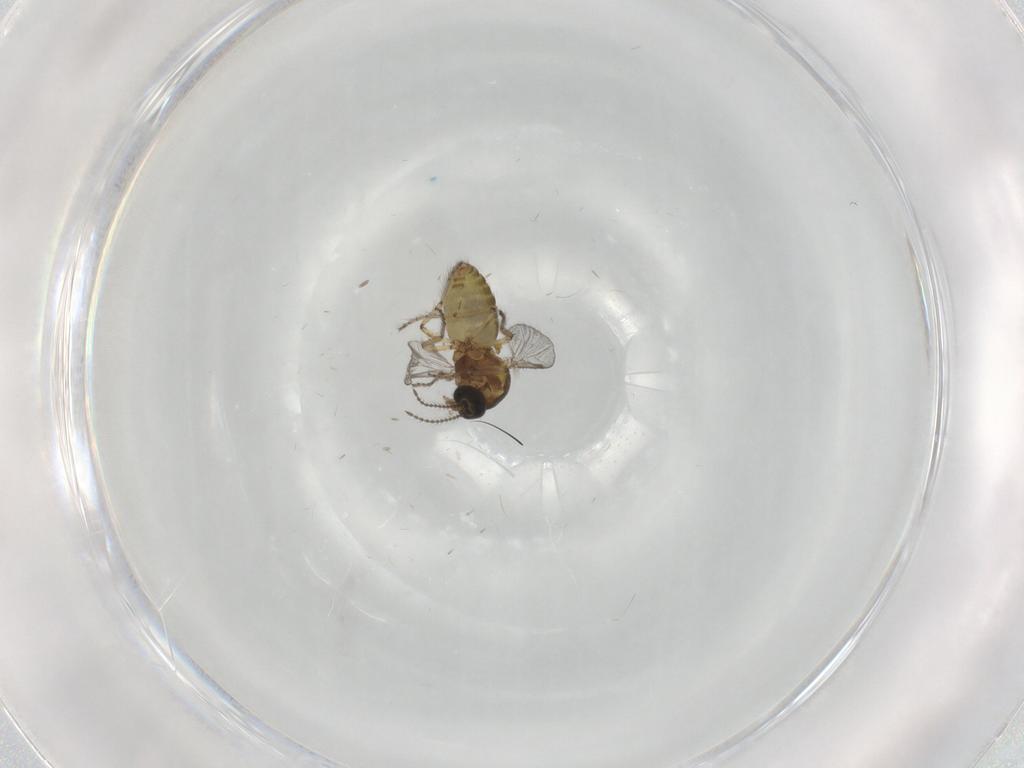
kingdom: Animalia
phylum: Arthropoda
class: Insecta
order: Diptera
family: Ceratopogonidae
